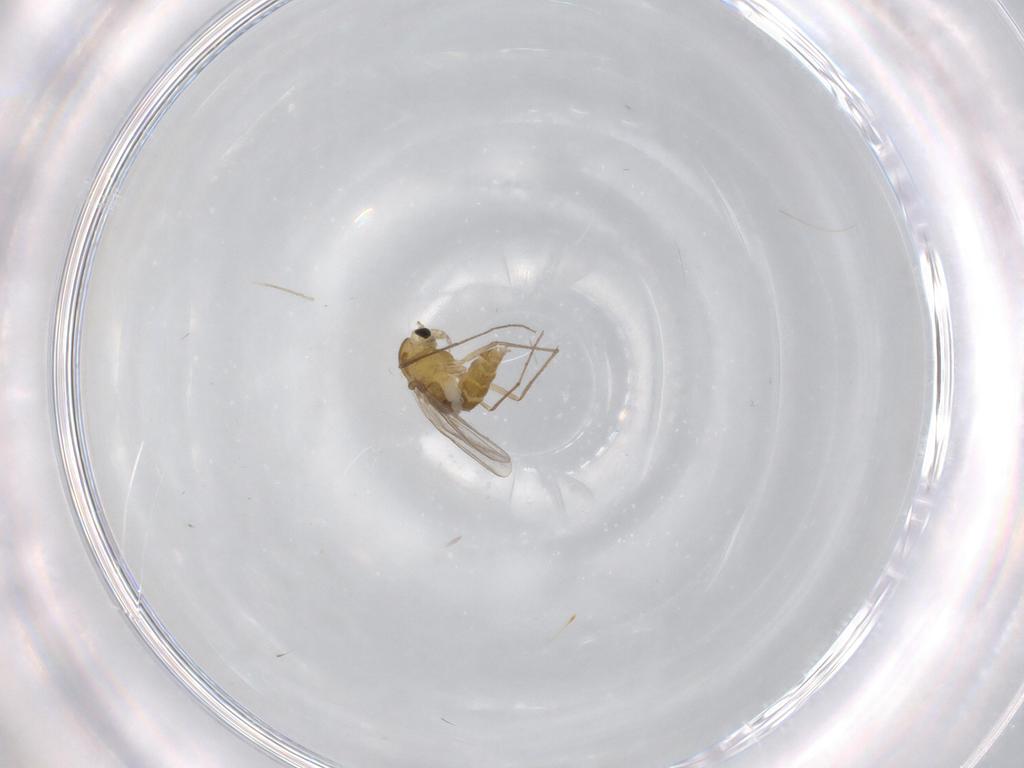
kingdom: Animalia
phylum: Arthropoda
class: Insecta
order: Diptera
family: Chironomidae
